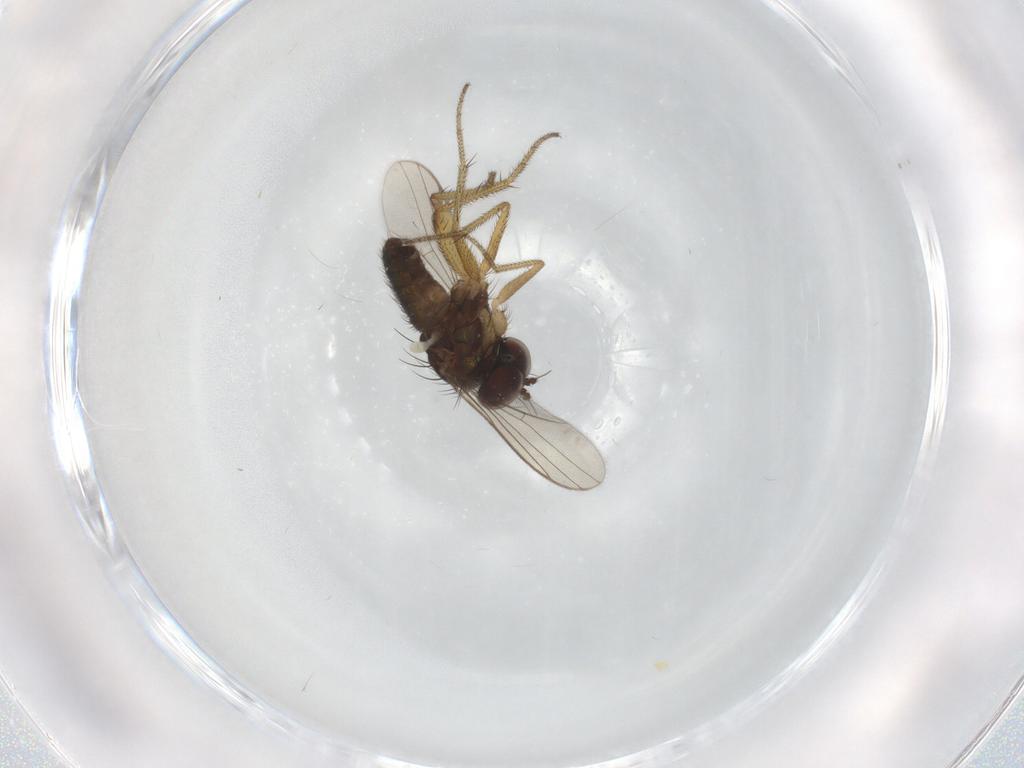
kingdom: Animalia
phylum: Arthropoda
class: Insecta
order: Diptera
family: Dolichopodidae
